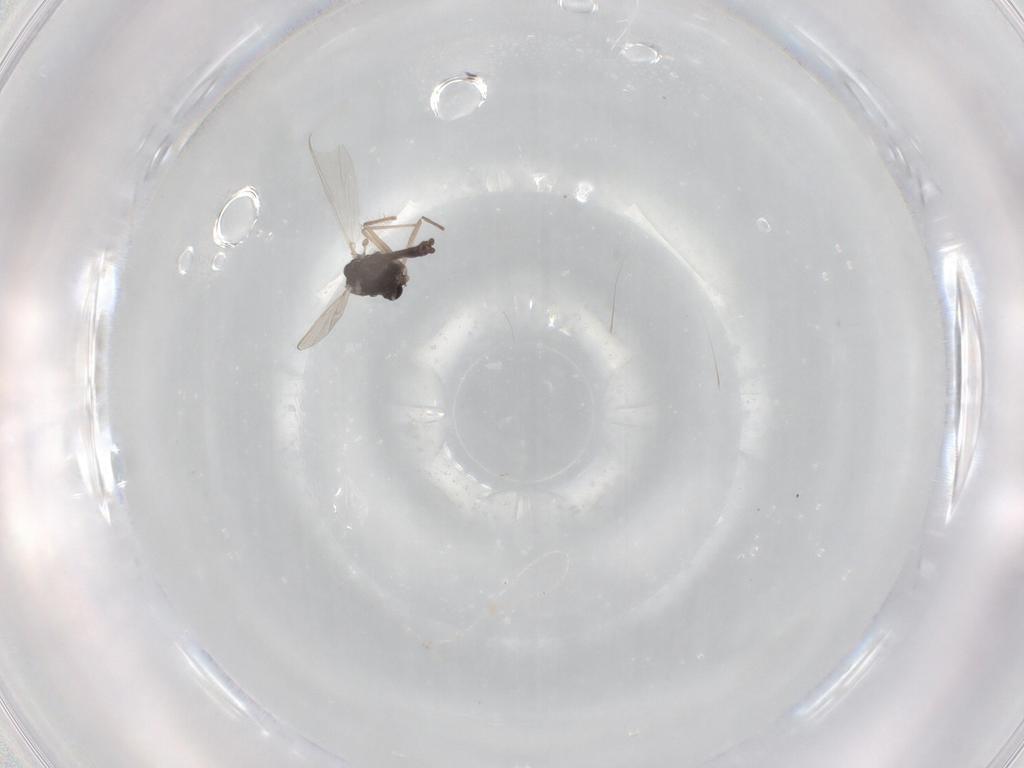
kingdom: Animalia
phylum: Arthropoda
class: Insecta
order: Diptera
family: Chironomidae
